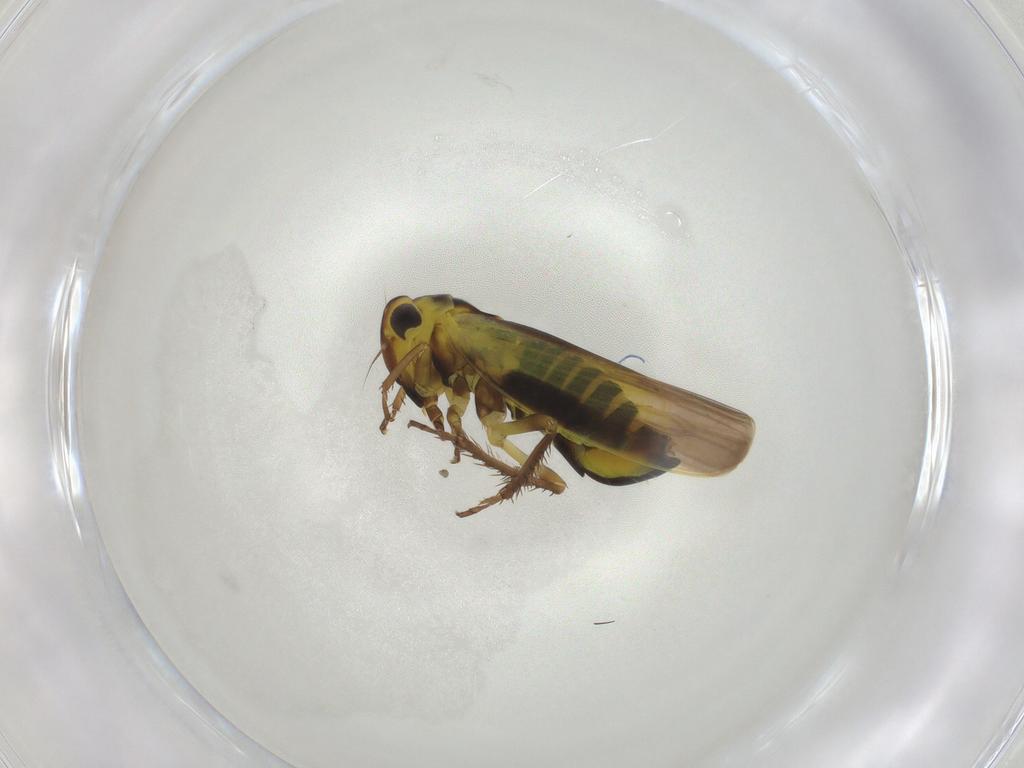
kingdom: Animalia
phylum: Arthropoda
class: Insecta
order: Hemiptera
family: Cicadellidae
